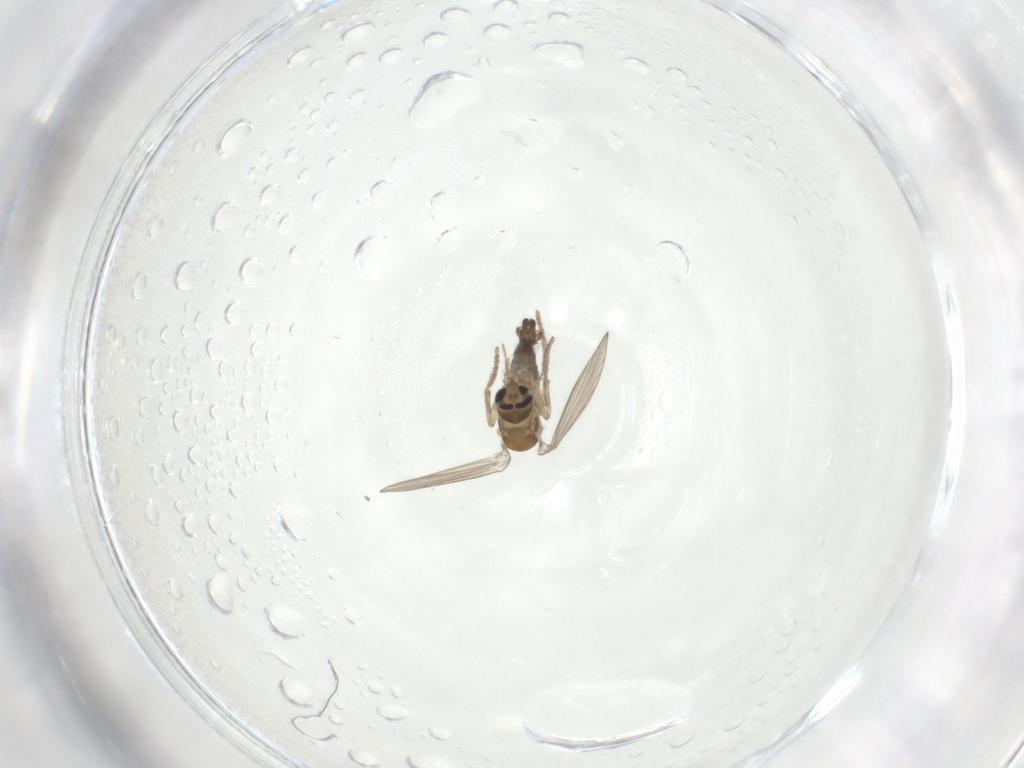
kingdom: Animalia
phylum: Arthropoda
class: Insecta
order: Diptera
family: Psychodidae
